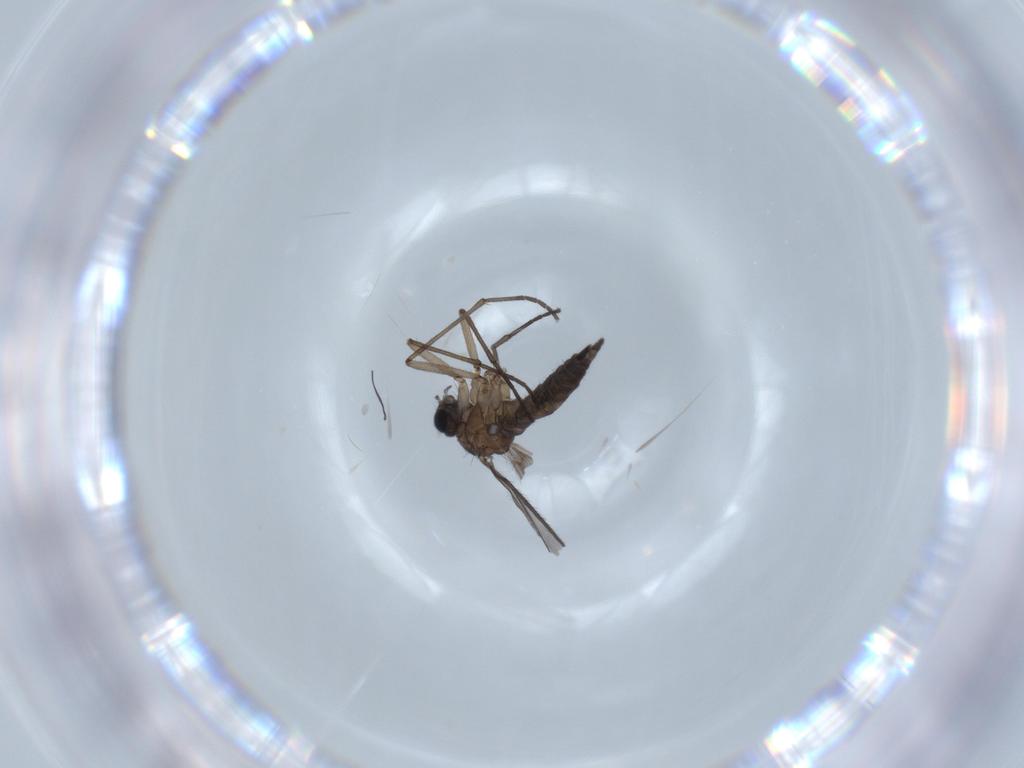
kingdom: Animalia
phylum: Arthropoda
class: Insecta
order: Diptera
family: Sciaridae
